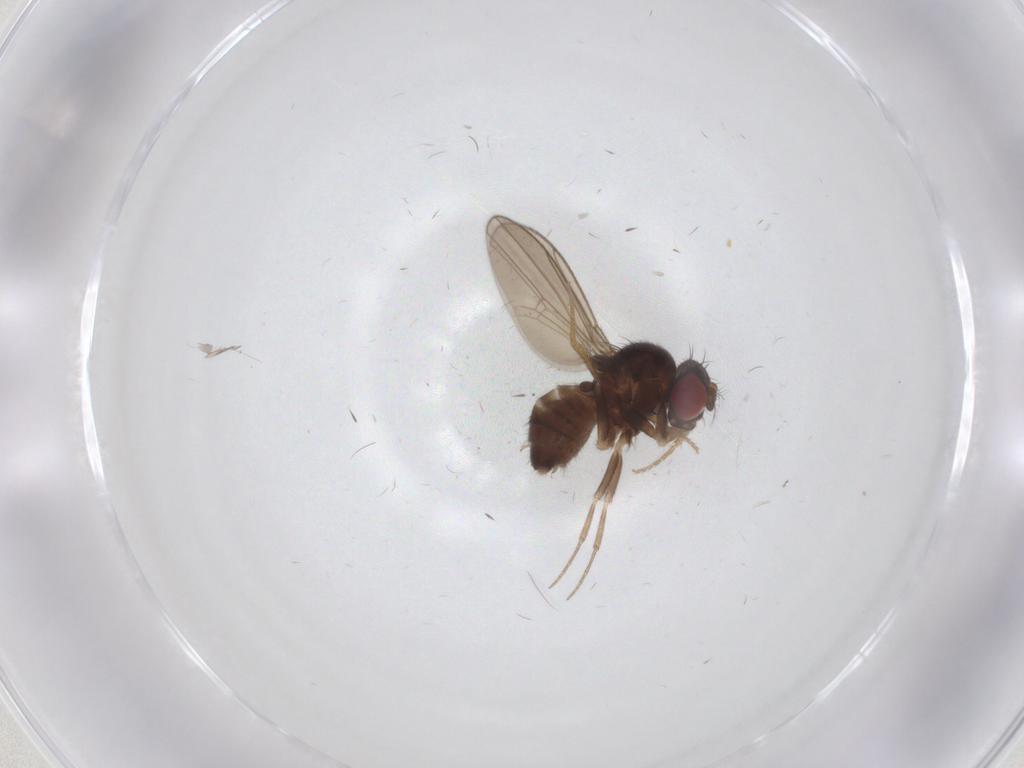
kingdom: Animalia
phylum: Arthropoda
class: Insecta
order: Diptera
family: Drosophilidae
